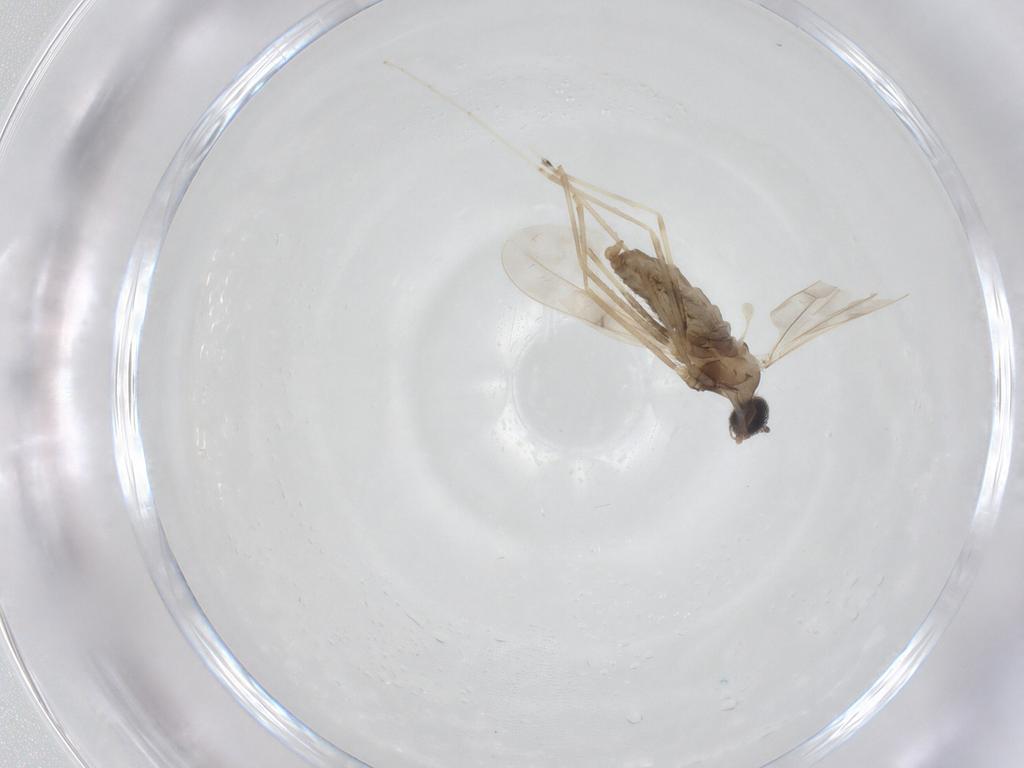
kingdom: Animalia
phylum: Arthropoda
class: Insecta
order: Diptera
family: Cecidomyiidae
